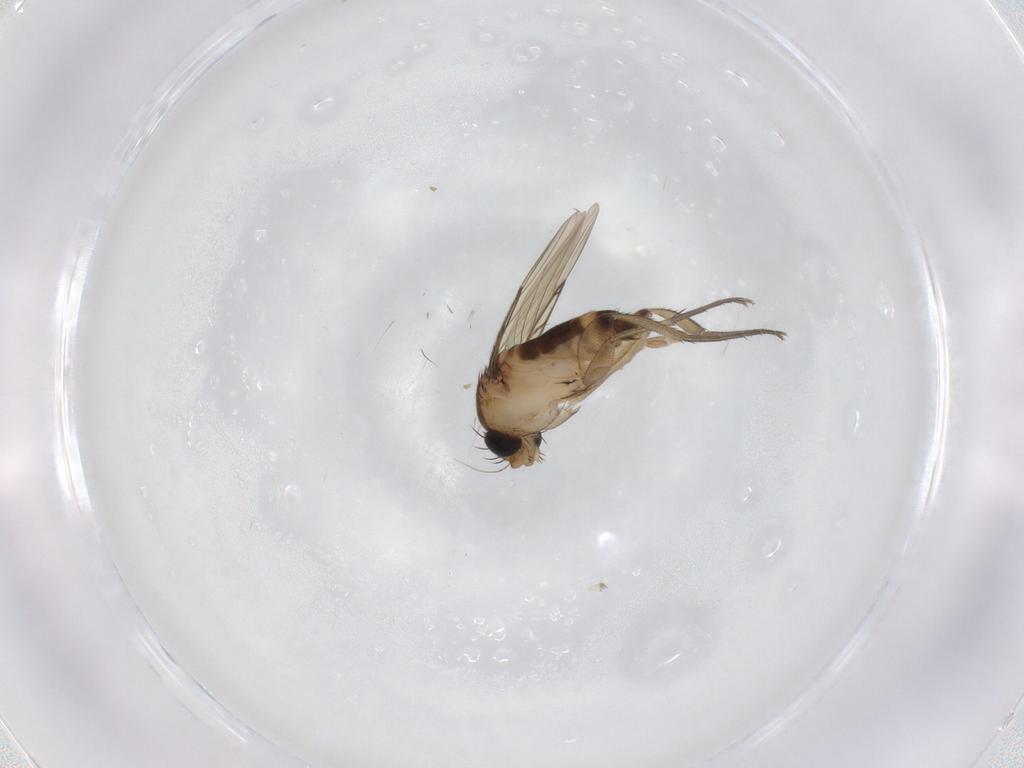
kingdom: Animalia
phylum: Arthropoda
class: Insecta
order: Diptera
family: Phoridae
